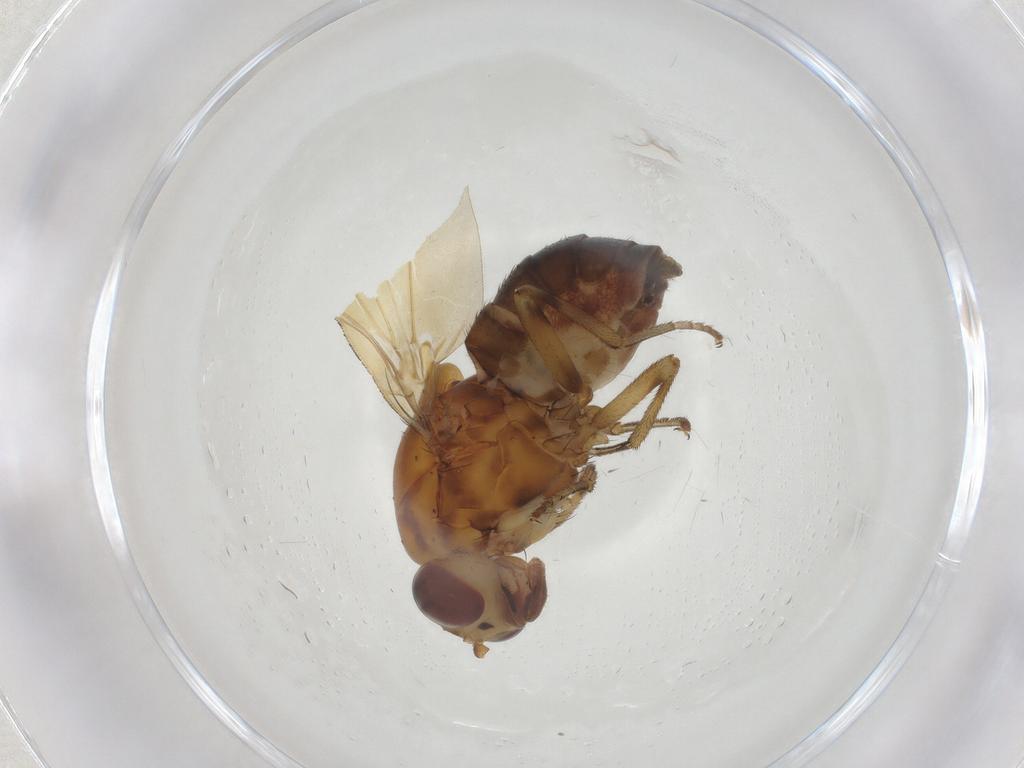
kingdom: Animalia
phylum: Arthropoda
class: Insecta
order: Diptera
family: Lauxaniidae
